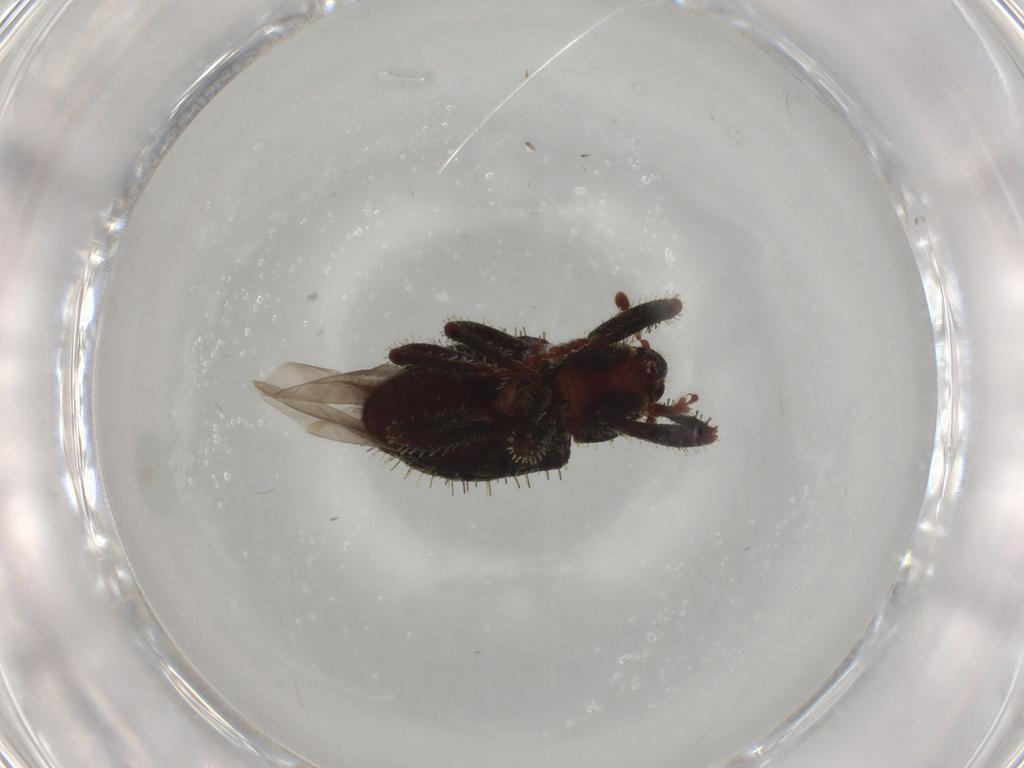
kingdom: Animalia
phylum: Arthropoda
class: Insecta
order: Coleoptera
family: Curculionidae
